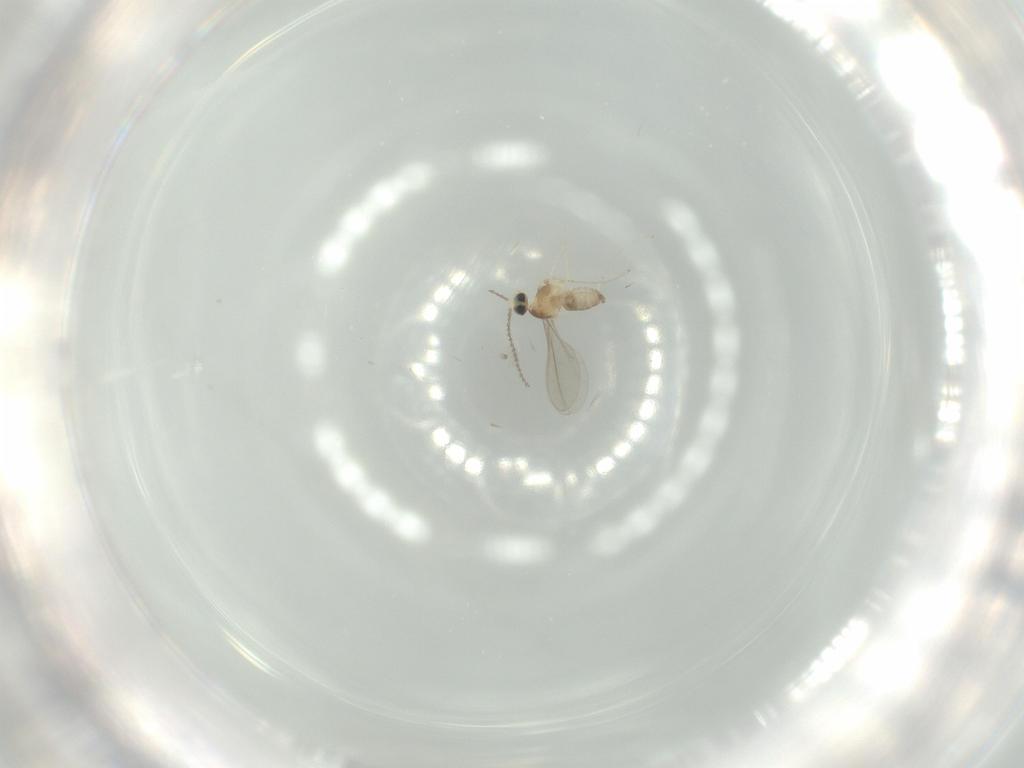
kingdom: Animalia
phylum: Arthropoda
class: Insecta
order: Diptera
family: Cecidomyiidae
